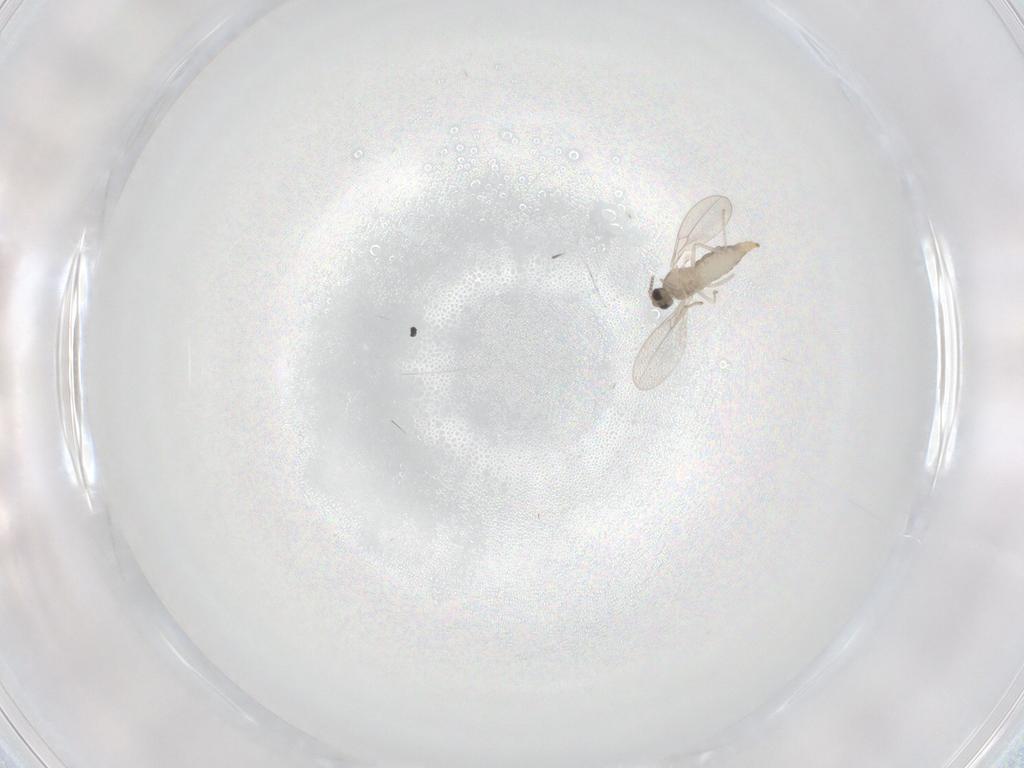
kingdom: Animalia
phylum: Arthropoda
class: Insecta
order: Diptera
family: Cecidomyiidae
